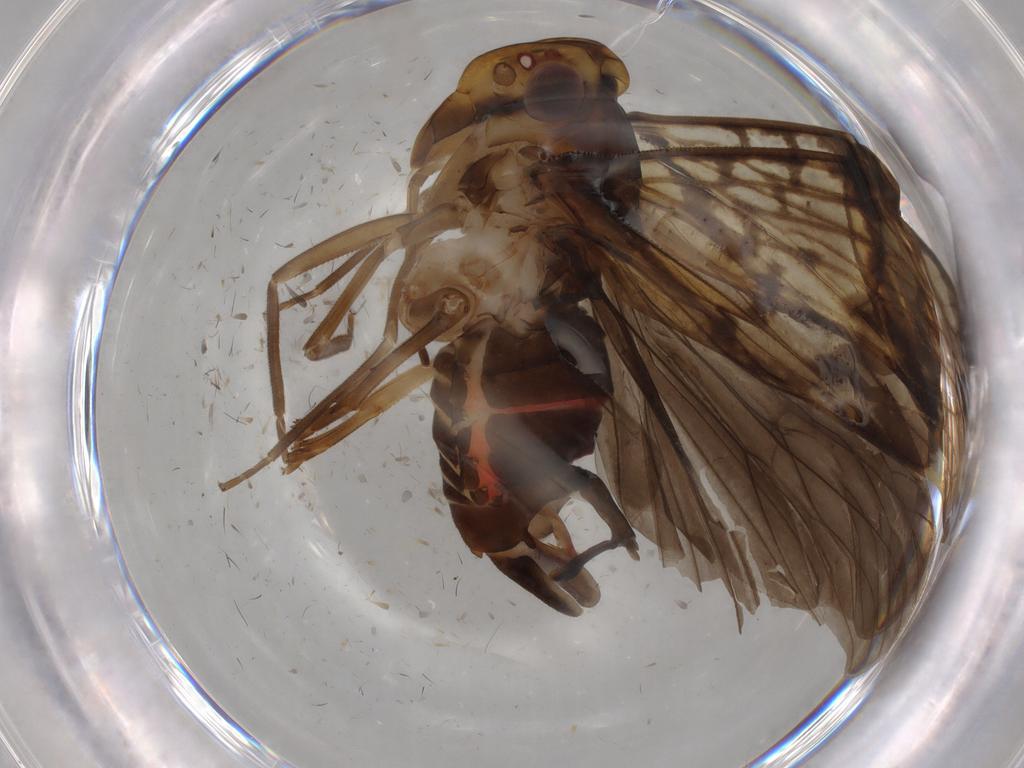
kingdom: Animalia
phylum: Arthropoda
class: Insecta
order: Hemiptera
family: Cixiidae
